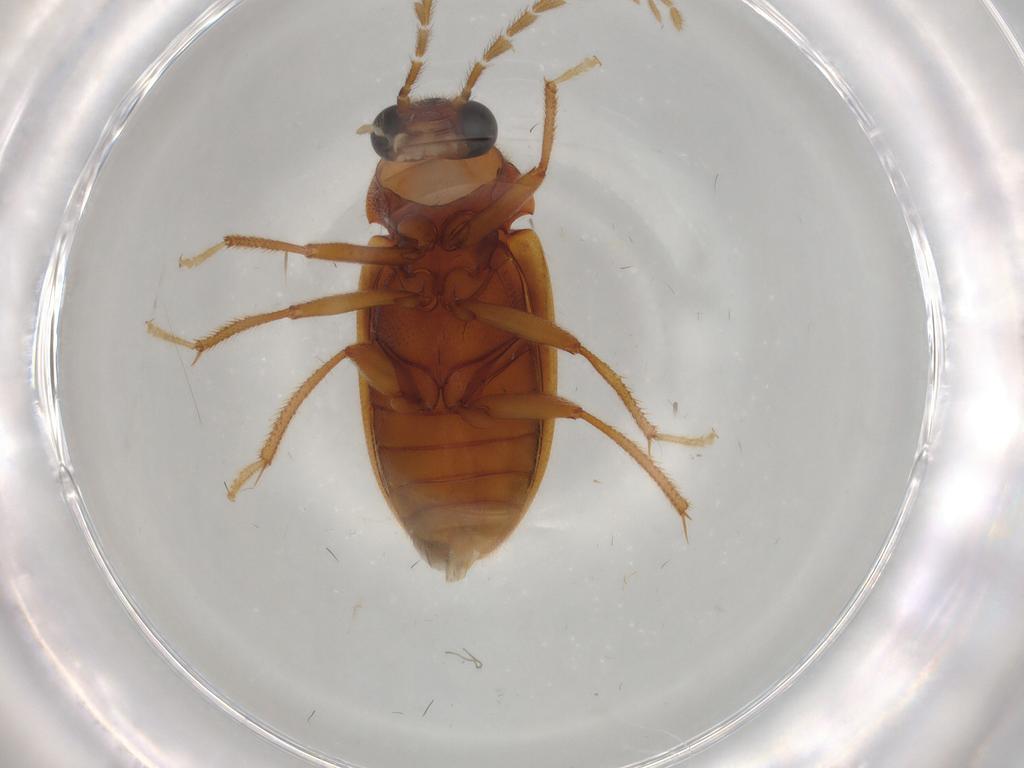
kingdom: Animalia
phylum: Arthropoda
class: Insecta
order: Coleoptera
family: Ptilodactylidae
